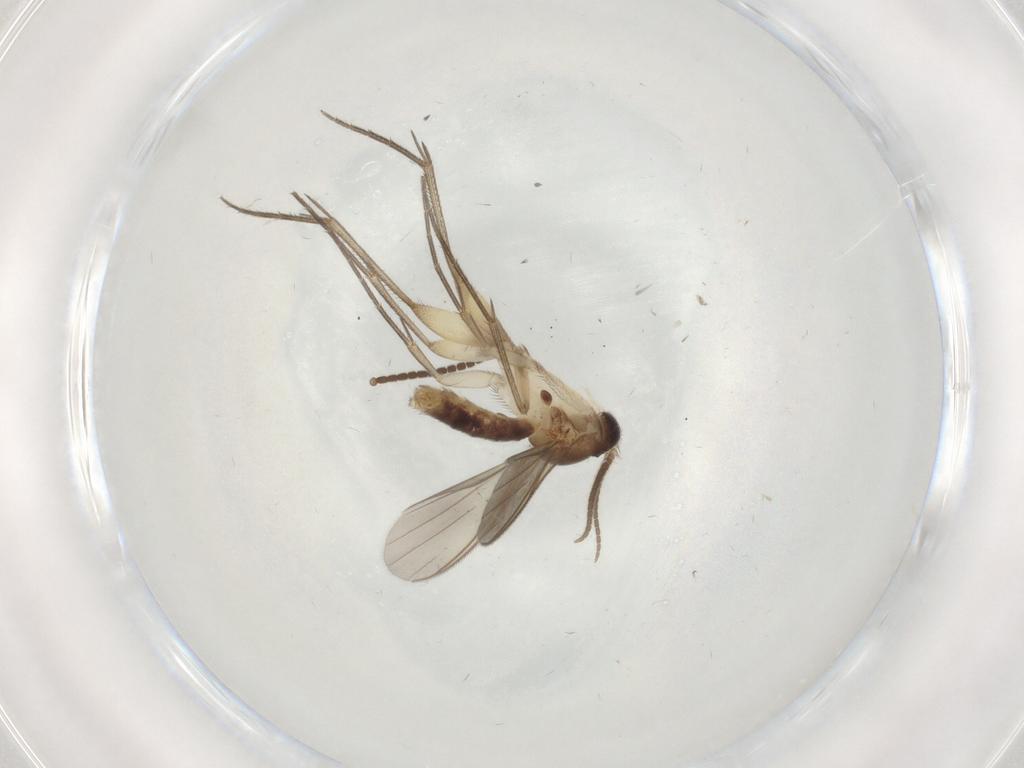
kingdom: Animalia
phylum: Arthropoda
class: Insecta
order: Diptera
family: Mycetophilidae
